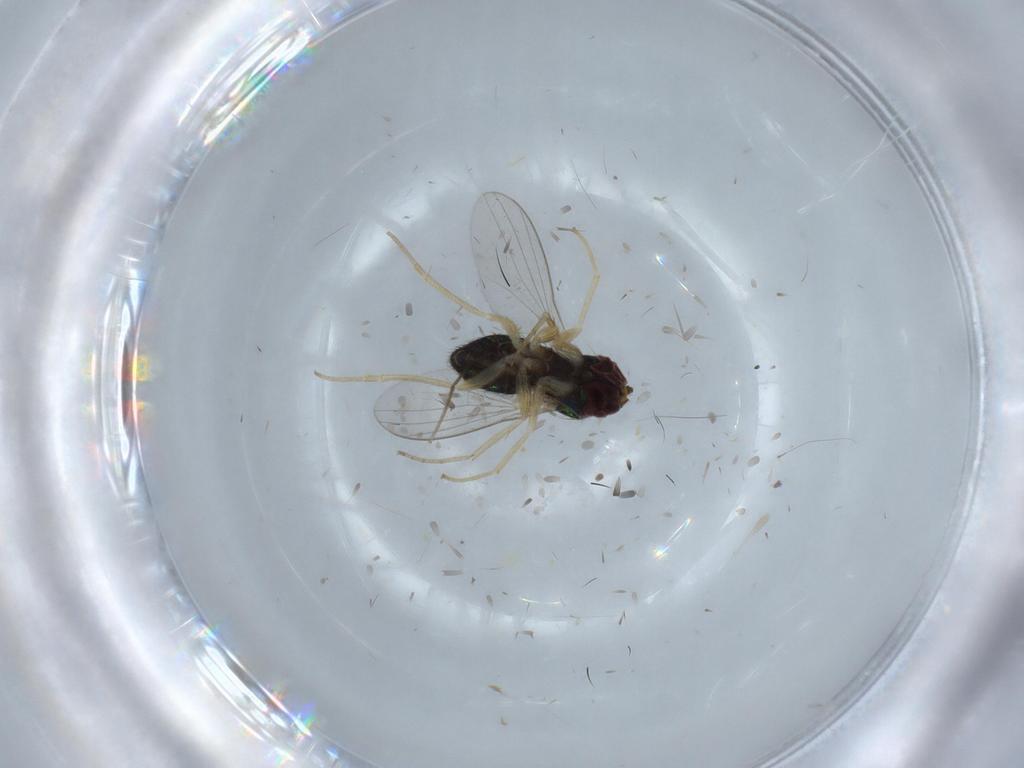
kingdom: Animalia
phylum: Arthropoda
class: Insecta
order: Diptera
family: Dolichopodidae
